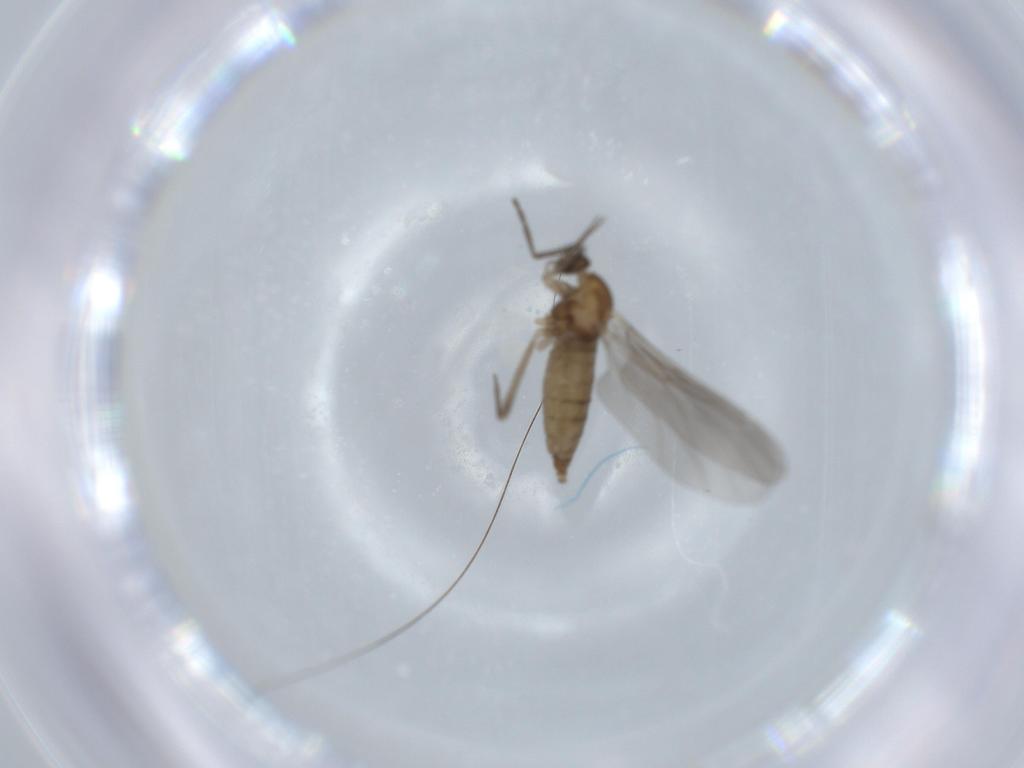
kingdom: Animalia
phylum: Arthropoda
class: Insecta
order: Diptera
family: Cecidomyiidae
